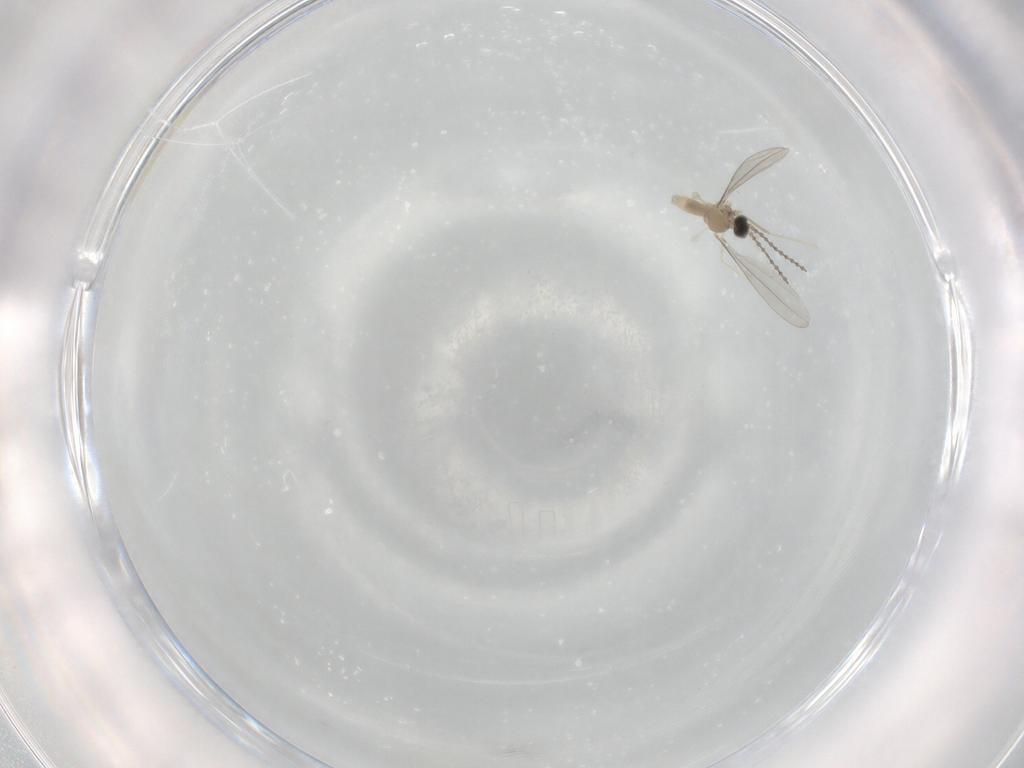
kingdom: Animalia
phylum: Arthropoda
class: Insecta
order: Diptera
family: Cecidomyiidae
